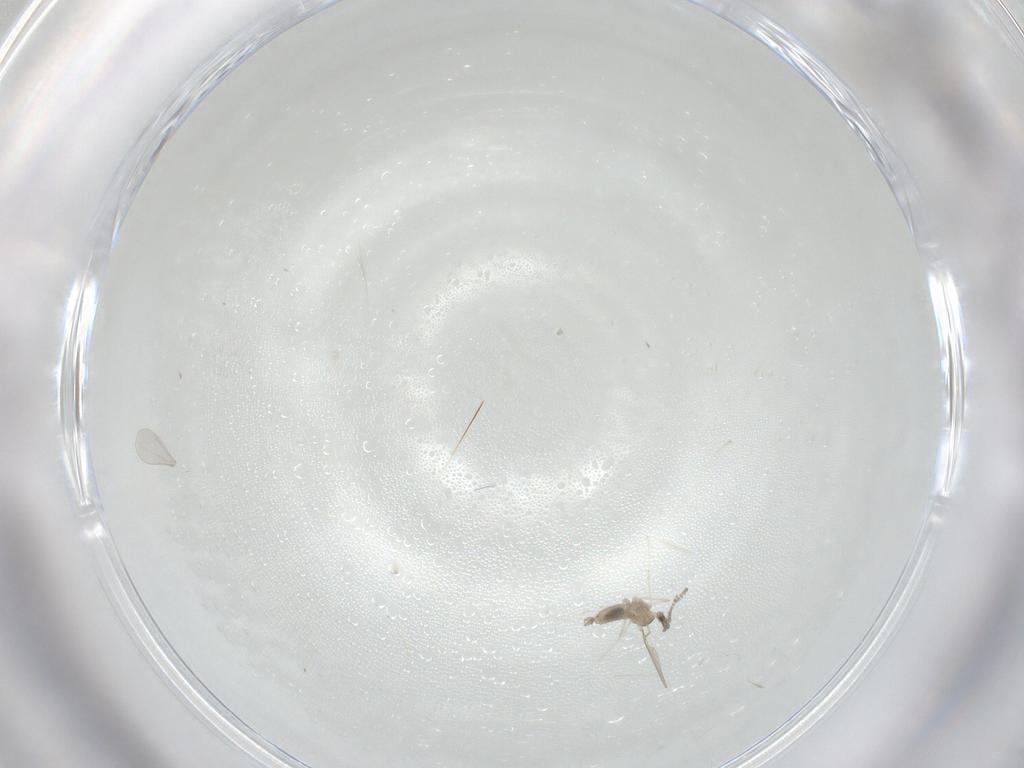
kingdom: Animalia
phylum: Arthropoda
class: Insecta
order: Diptera
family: Cecidomyiidae
